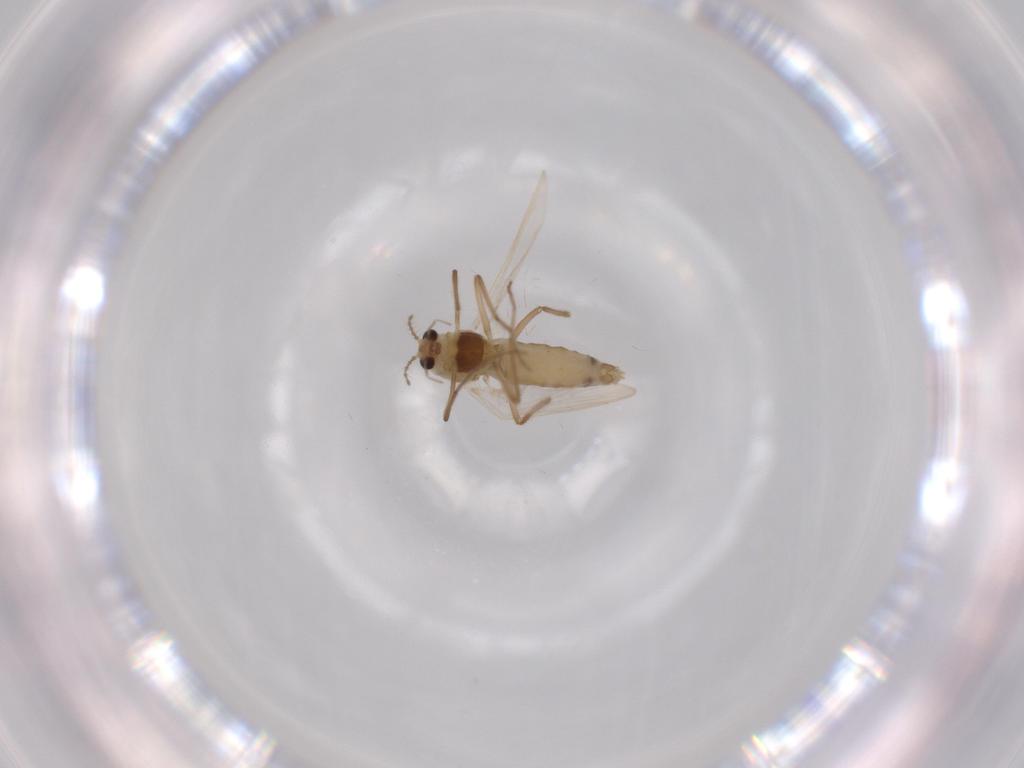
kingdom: Animalia
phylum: Arthropoda
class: Insecta
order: Diptera
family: Chironomidae
